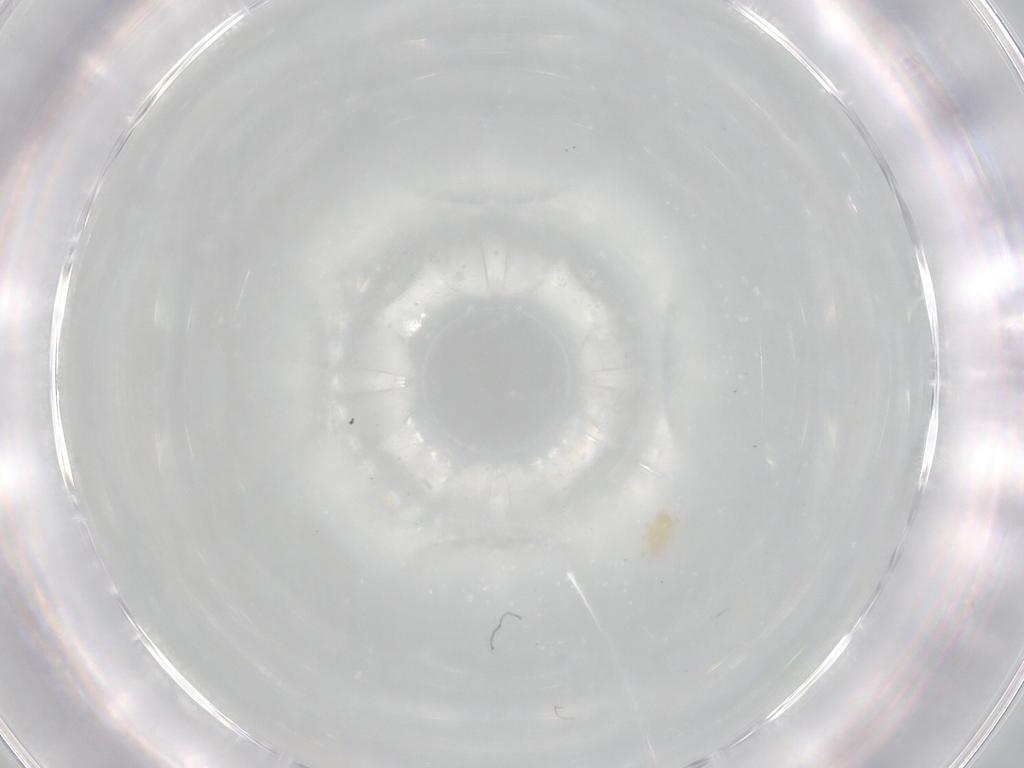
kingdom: Animalia
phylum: Arthropoda
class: Arachnida
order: Trombidiformes
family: Trombidiidae
